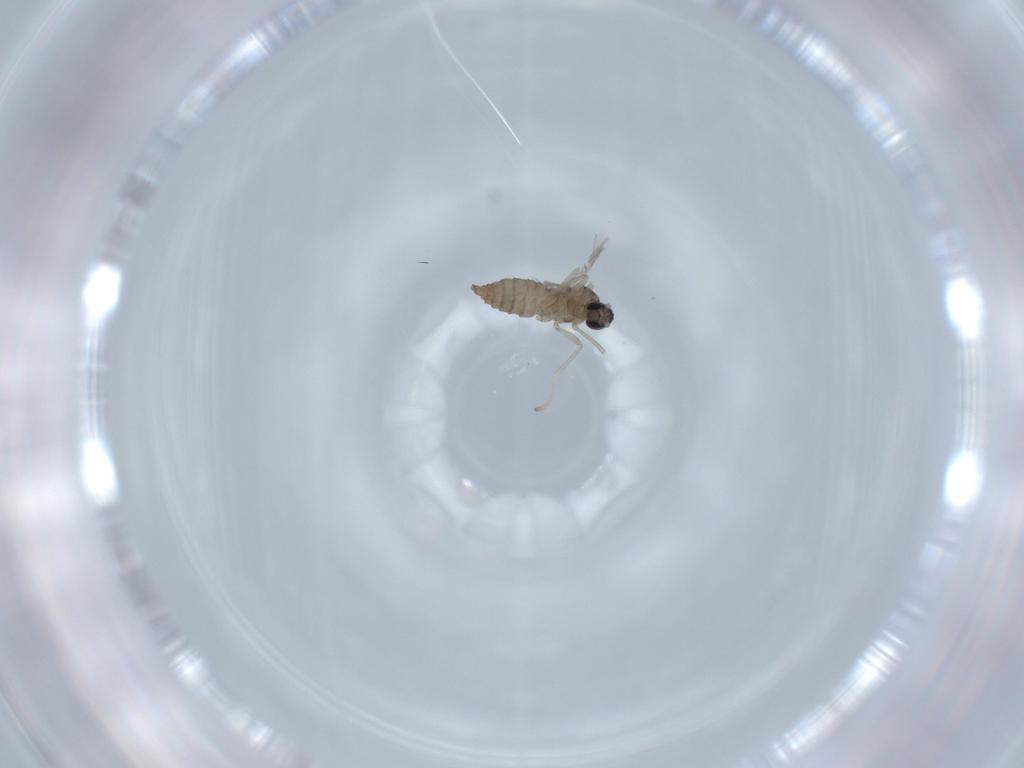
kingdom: Animalia
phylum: Arthropoda
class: Insecta
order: Diptera
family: Cecidomyiidae
